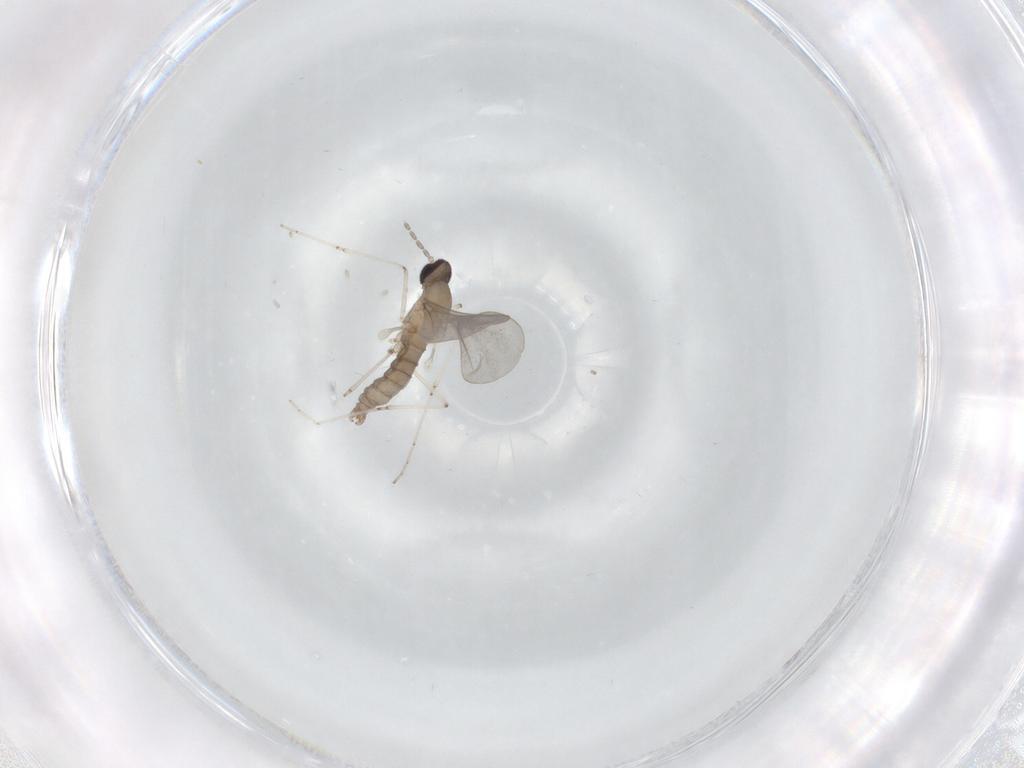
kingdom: Animalia
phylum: Arthropoda
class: Insecta
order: Diptera
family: Cecidomyiidae
